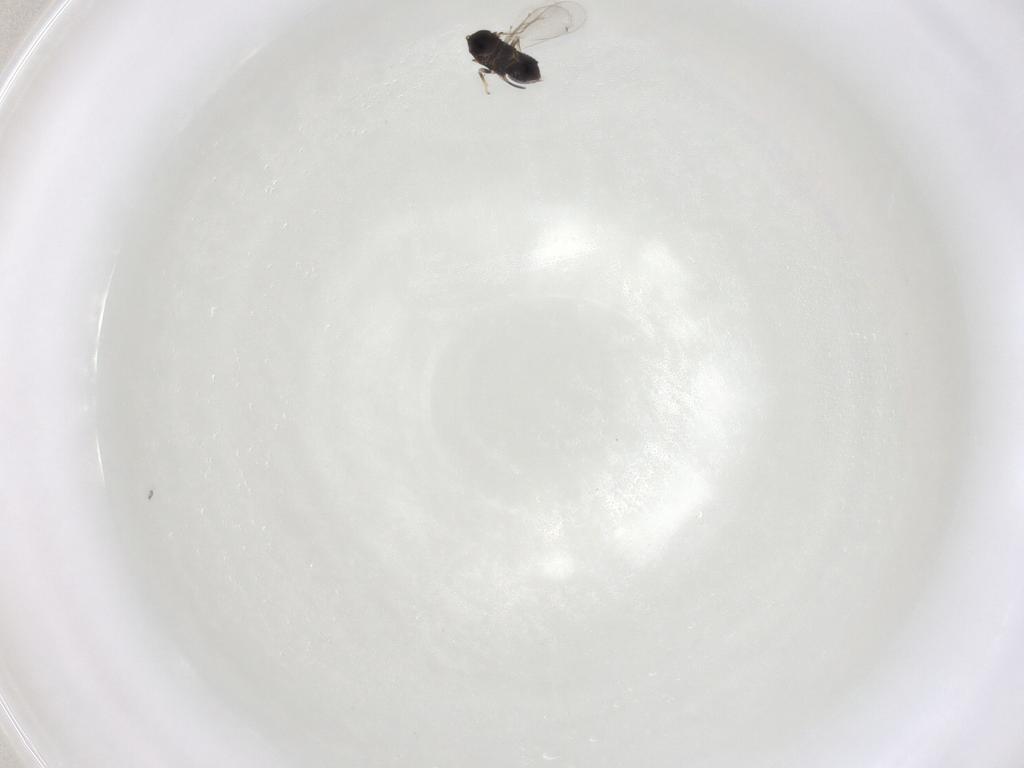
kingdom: Animalia
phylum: Arthropoda
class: Insecta
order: Hymenoptera
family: Aphelinidae
